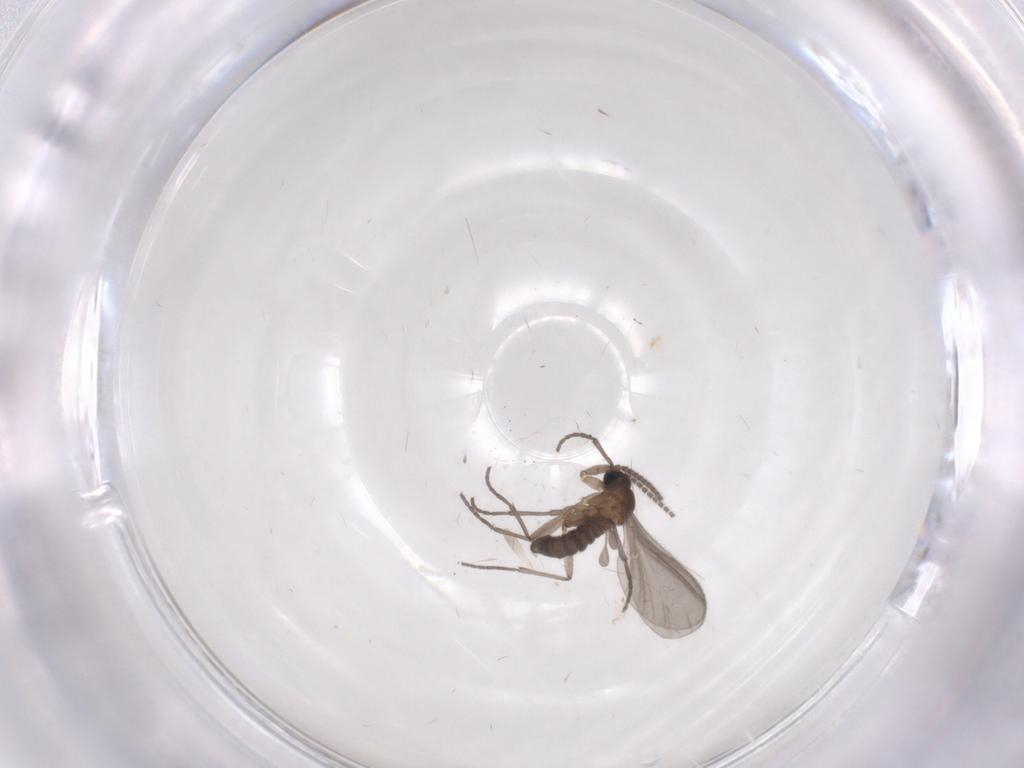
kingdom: Animalia
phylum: Arthropoda
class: Insecta
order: Diptera
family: Sciaridae
